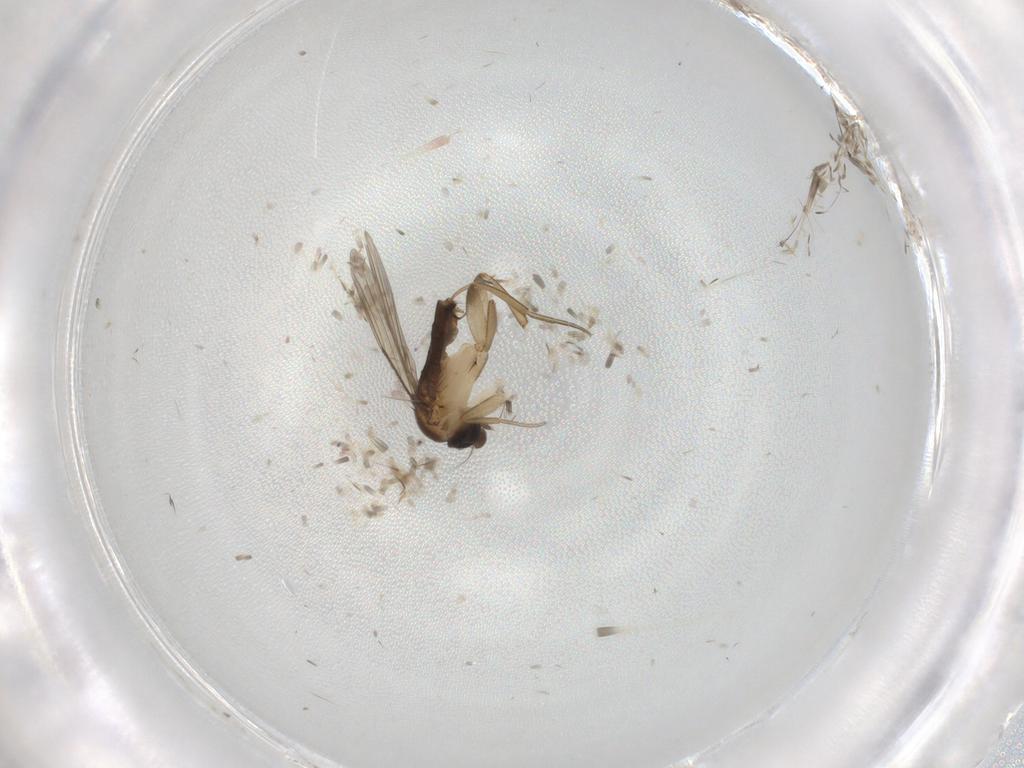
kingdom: Animalia
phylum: Arthropoda
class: Insecta
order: Diptera
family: Phoridae
